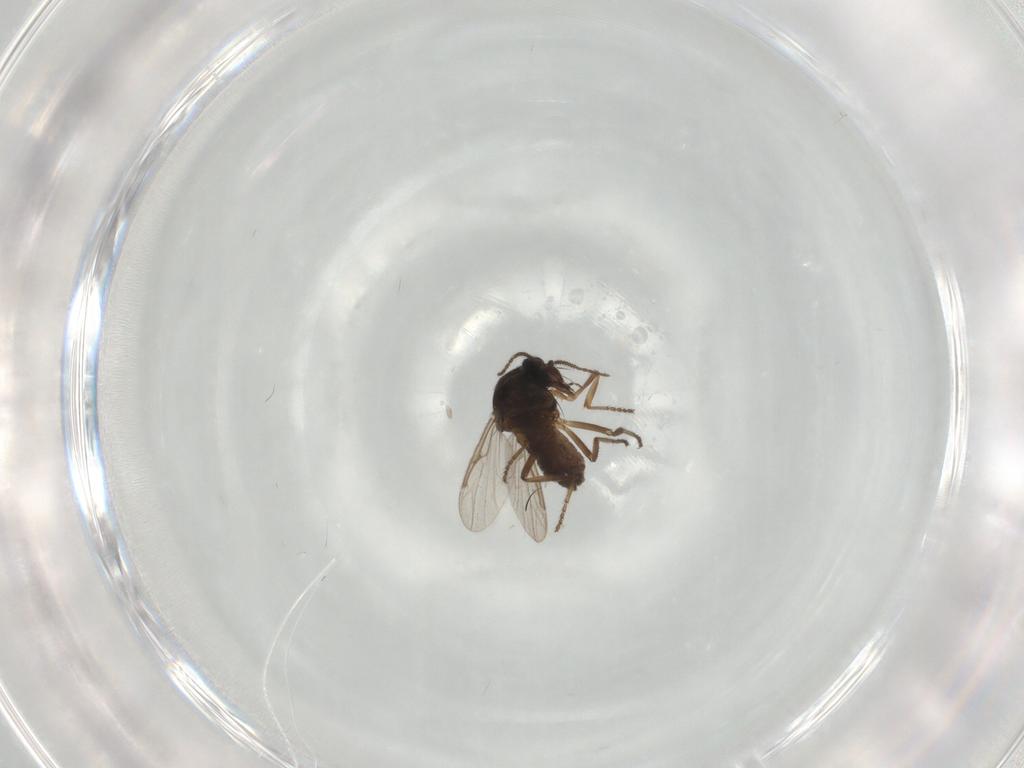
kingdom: Animalia
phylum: Arthropoda
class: Insecta
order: Diptera
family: Ceratopogonidae
